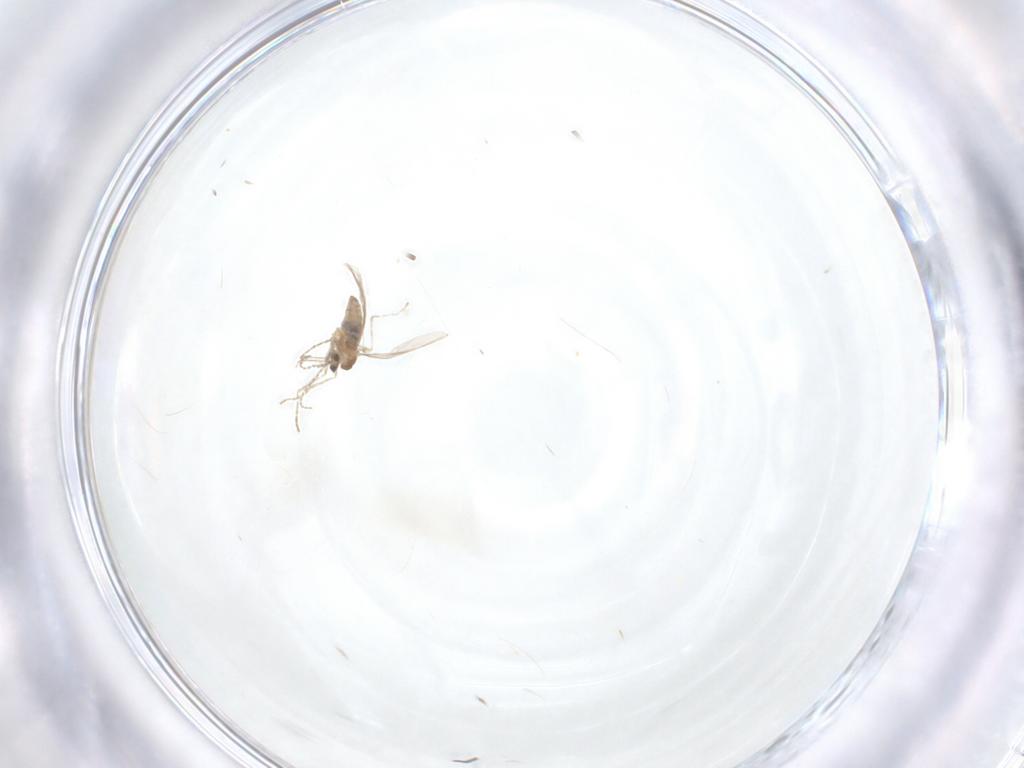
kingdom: Animalia
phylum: Arthropoda
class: Insecta
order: Diptera
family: Cecidomyiidae
